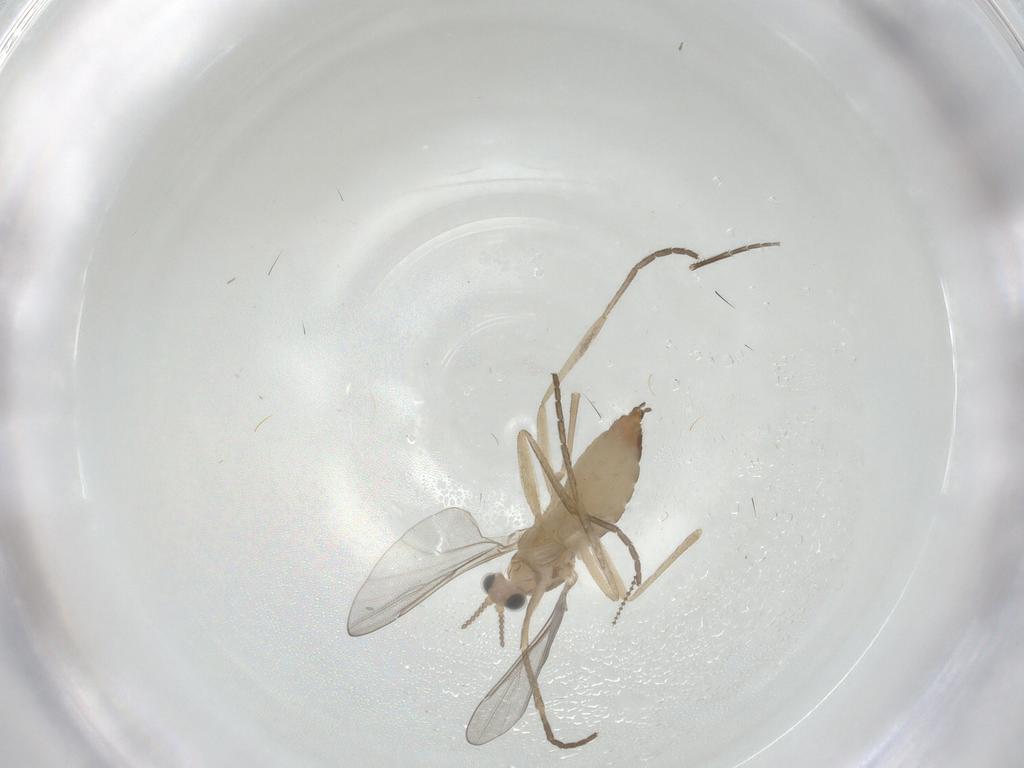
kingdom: Animalia
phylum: Arthropoda
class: Insecta
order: Diptera
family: Cecidomyiidae
